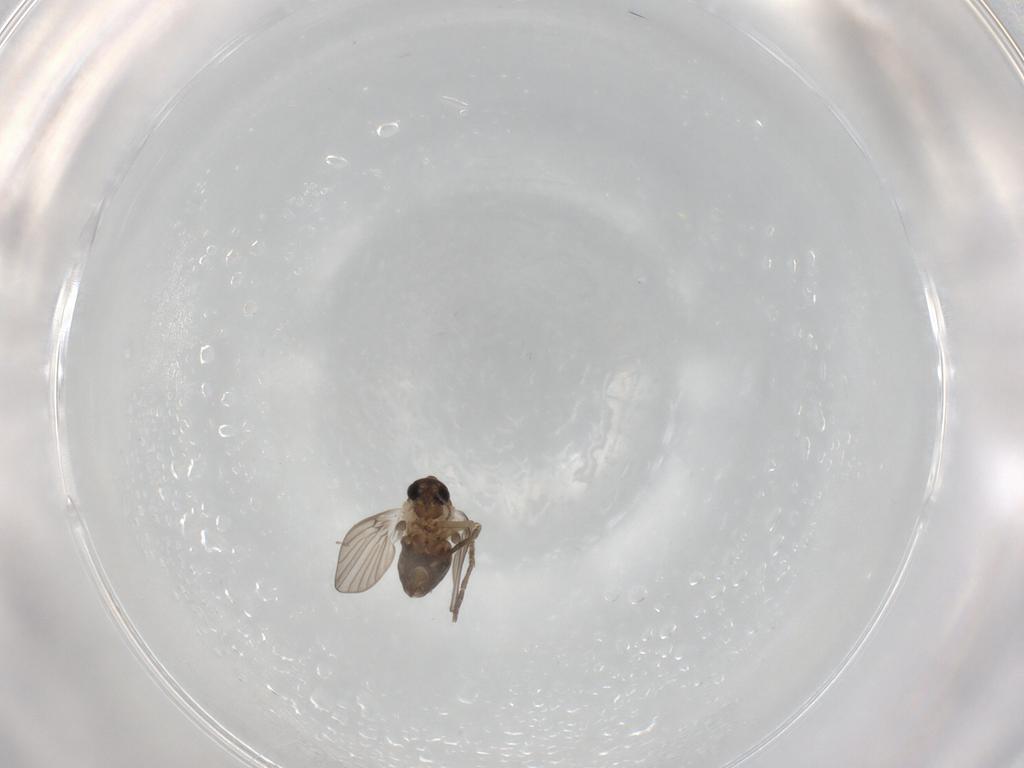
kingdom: Animalia
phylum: Arthropoda
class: Insecta
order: Diptera
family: Psychodidae
